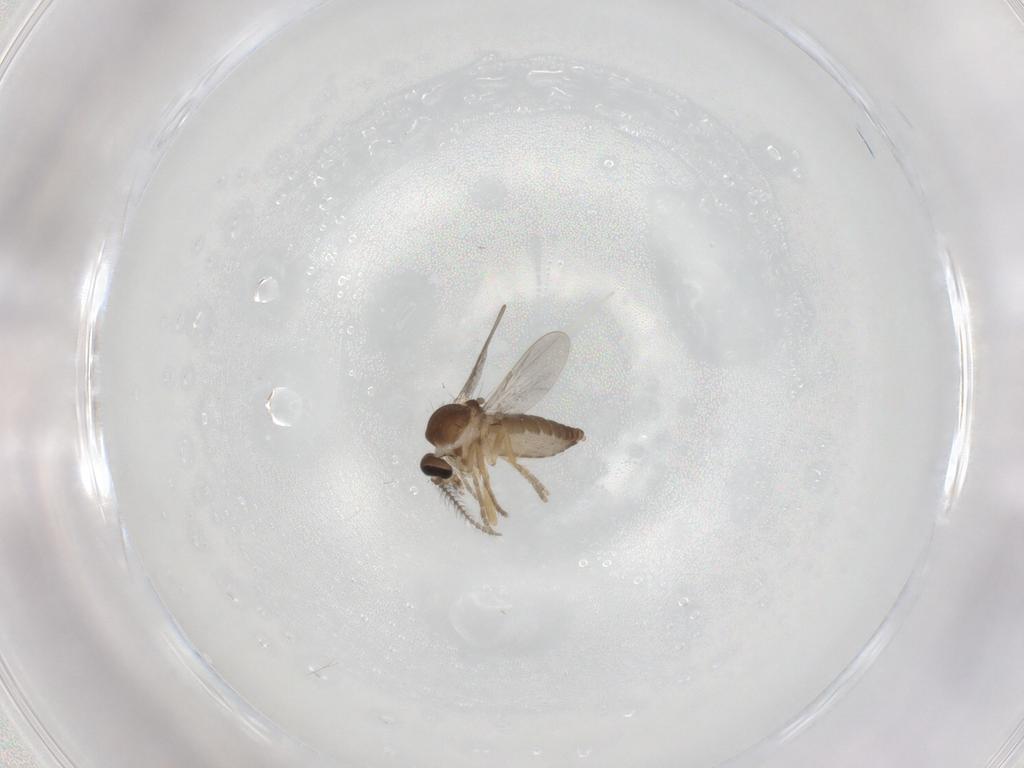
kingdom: Animalia
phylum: Arthropoda
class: Insecta
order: Diptera
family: Ceratopogonidae
